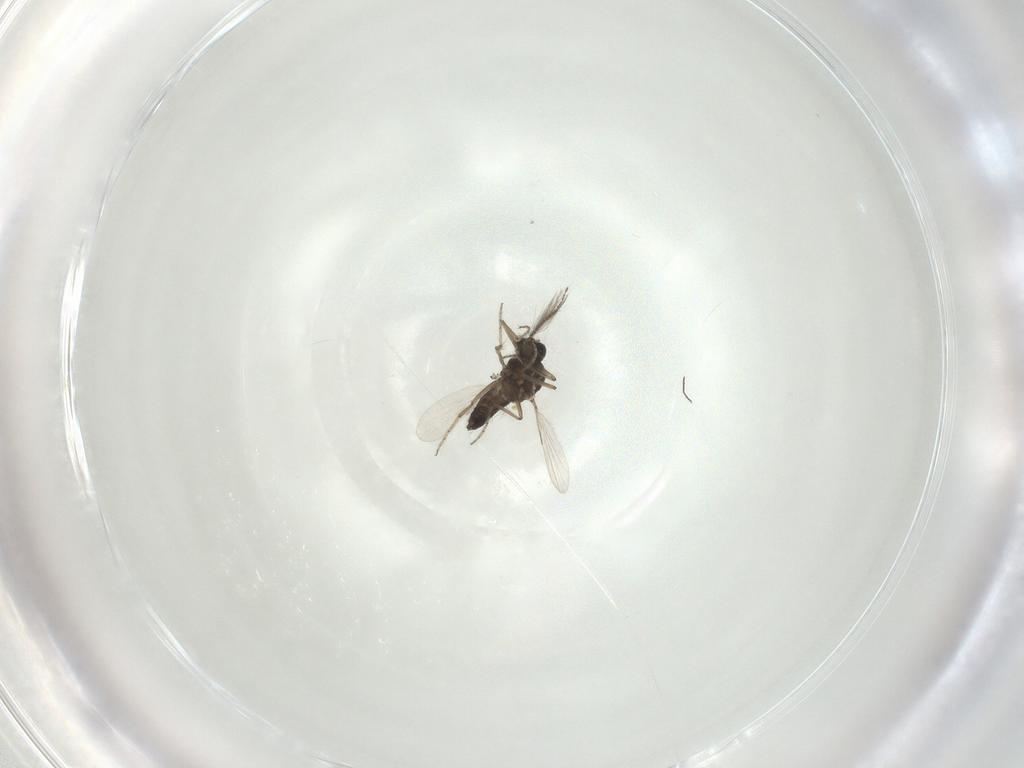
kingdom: Animalia
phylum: Arthropoda
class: Insecta
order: Diptera
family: Ceratopogonidae
